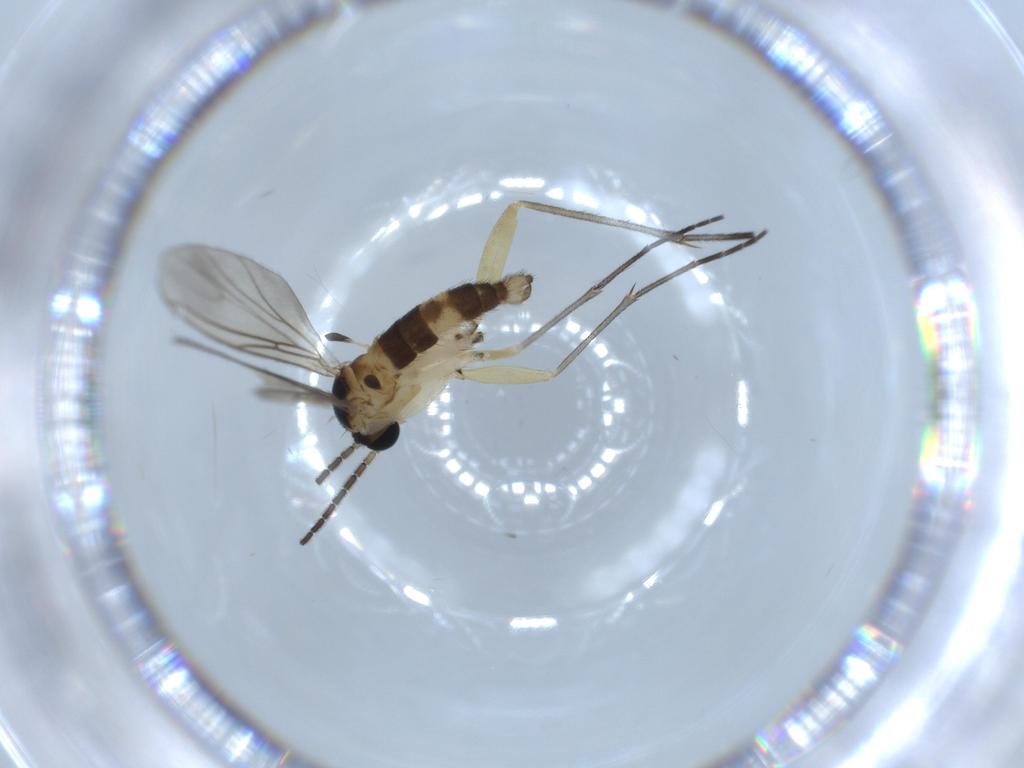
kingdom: Animalia
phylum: Arthropoda
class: Insecta
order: Diptera
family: Sciaridae
